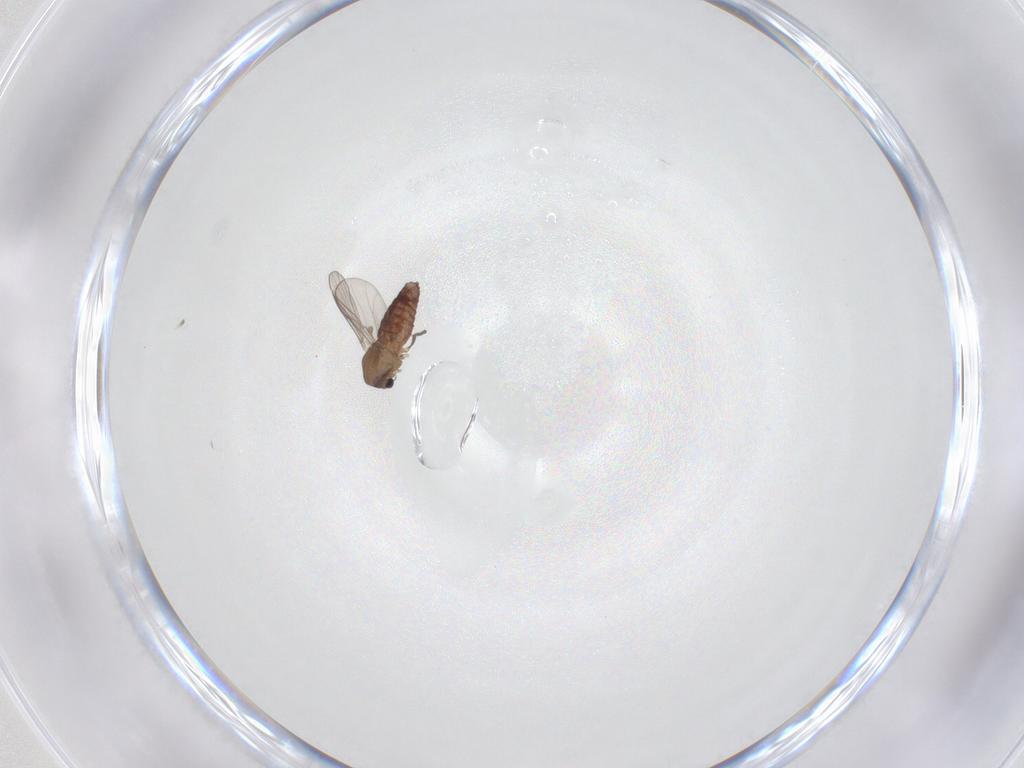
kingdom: Animalia
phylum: Arthropoda
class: Insecta
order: Diptera
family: Chironomidae
